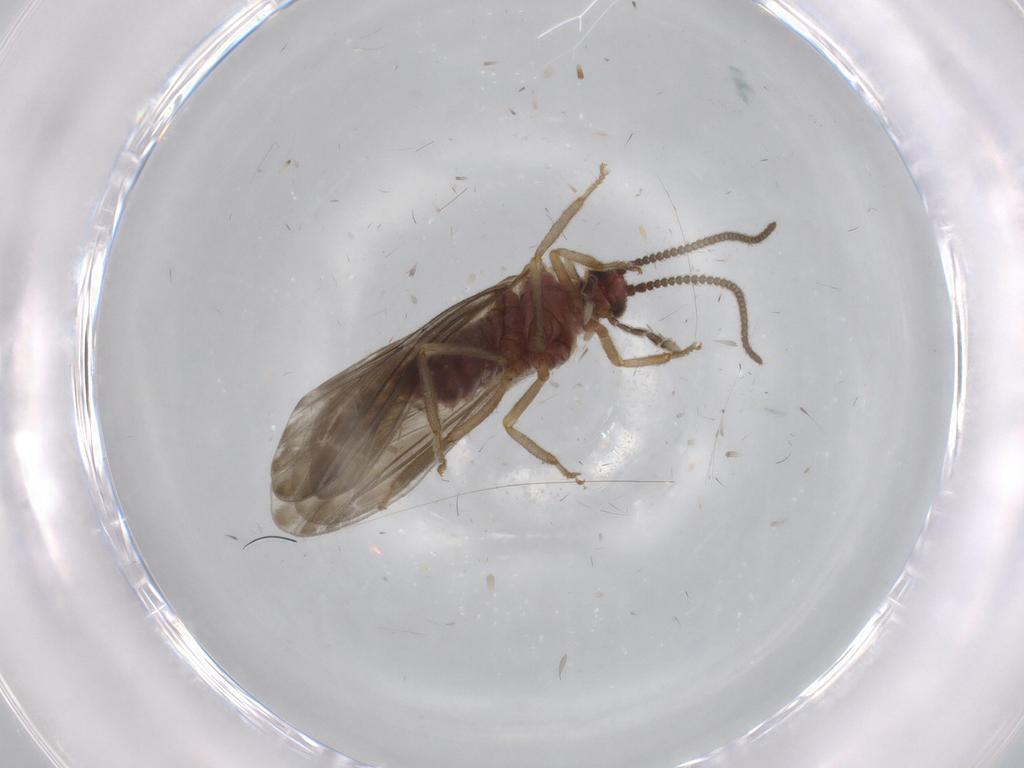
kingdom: Animalia
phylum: Arthropoda
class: Insecta
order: Neuroptera
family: Coniopterygidae
